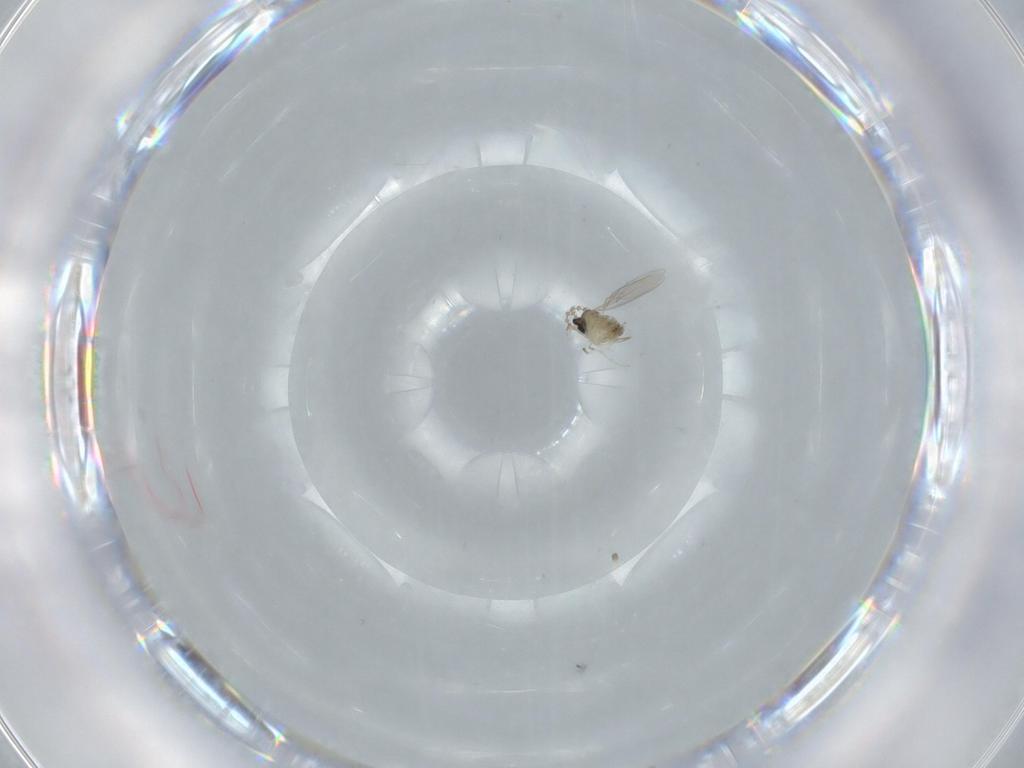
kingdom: Animalia
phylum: Arthropoda
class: Insecta
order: Diptera
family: Cecidomyiidae
